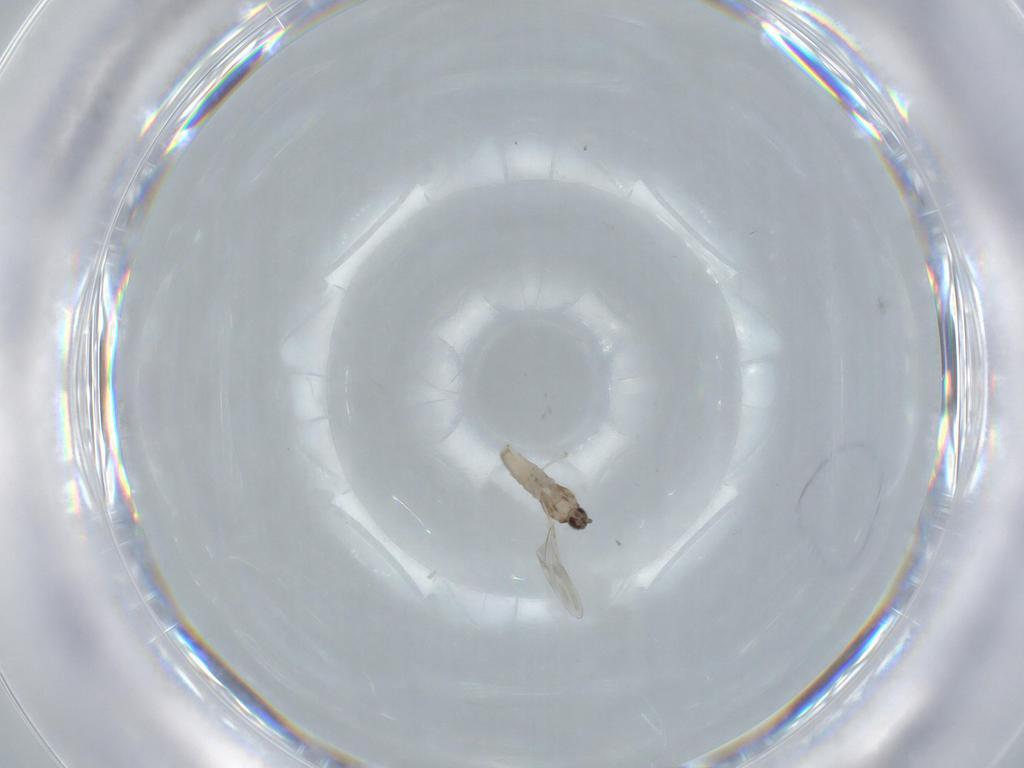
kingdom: Animalia
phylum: Arthropoda
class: Insecta
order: Diptera
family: Cecidomyiidae
